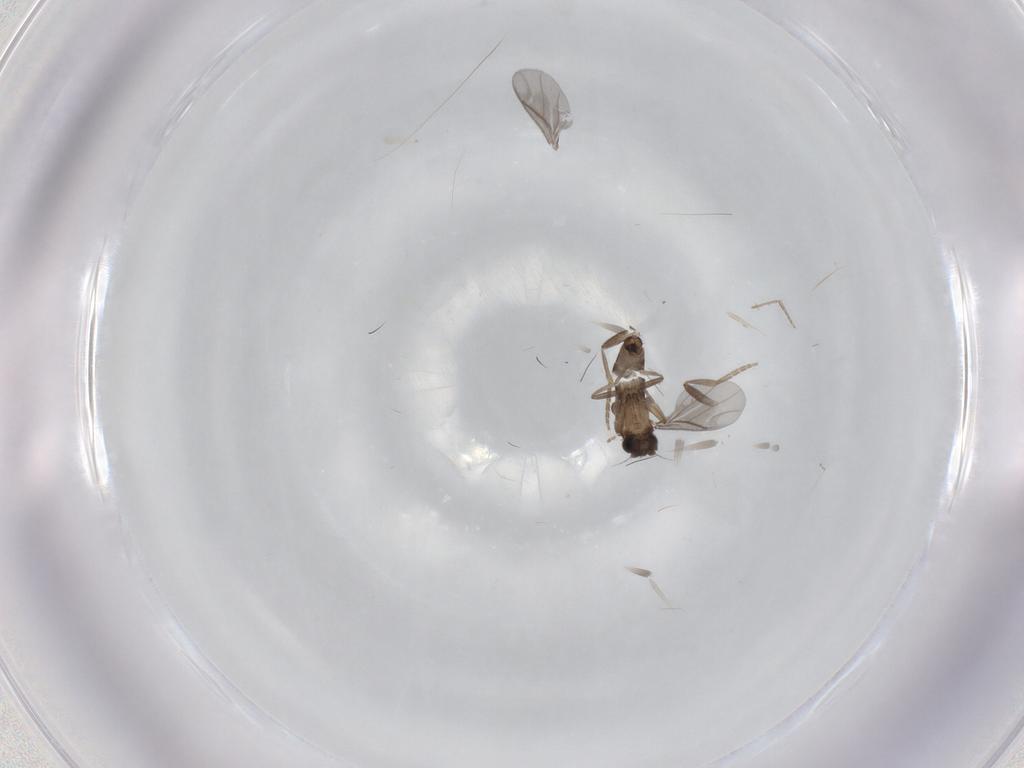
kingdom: Animalia
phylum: Arthropoda
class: Insecta
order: Diptera
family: Cecidomyiidae
